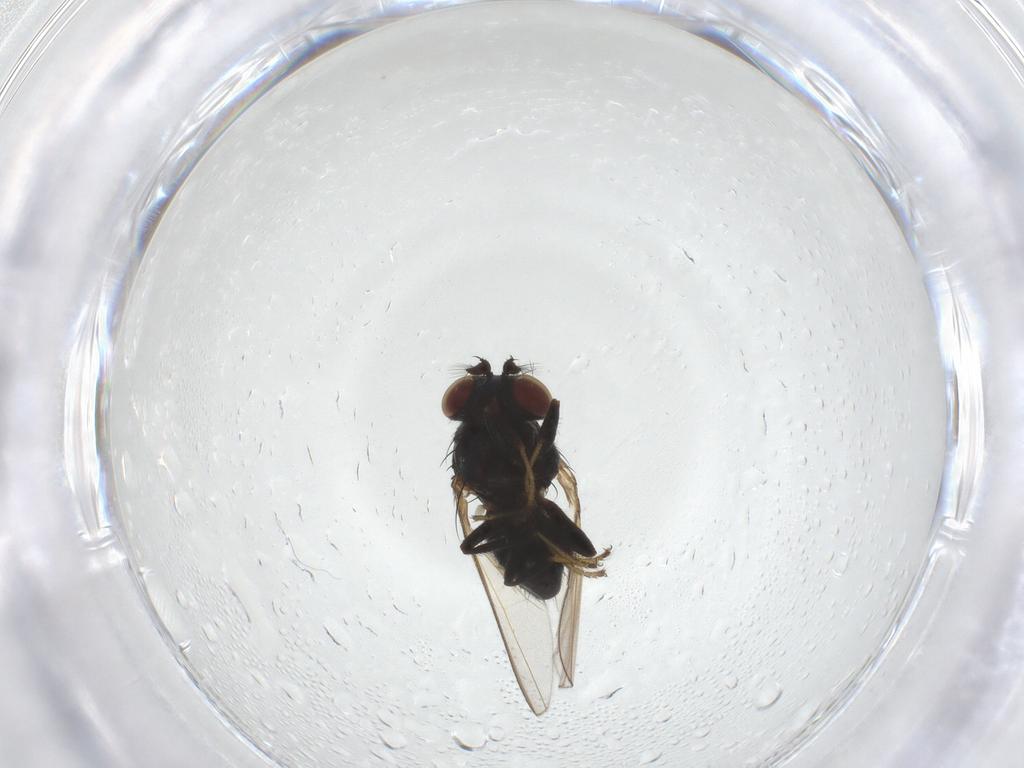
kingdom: Animalia
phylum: Arthropoda
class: Insecta
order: Diptera
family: Ephydridae
